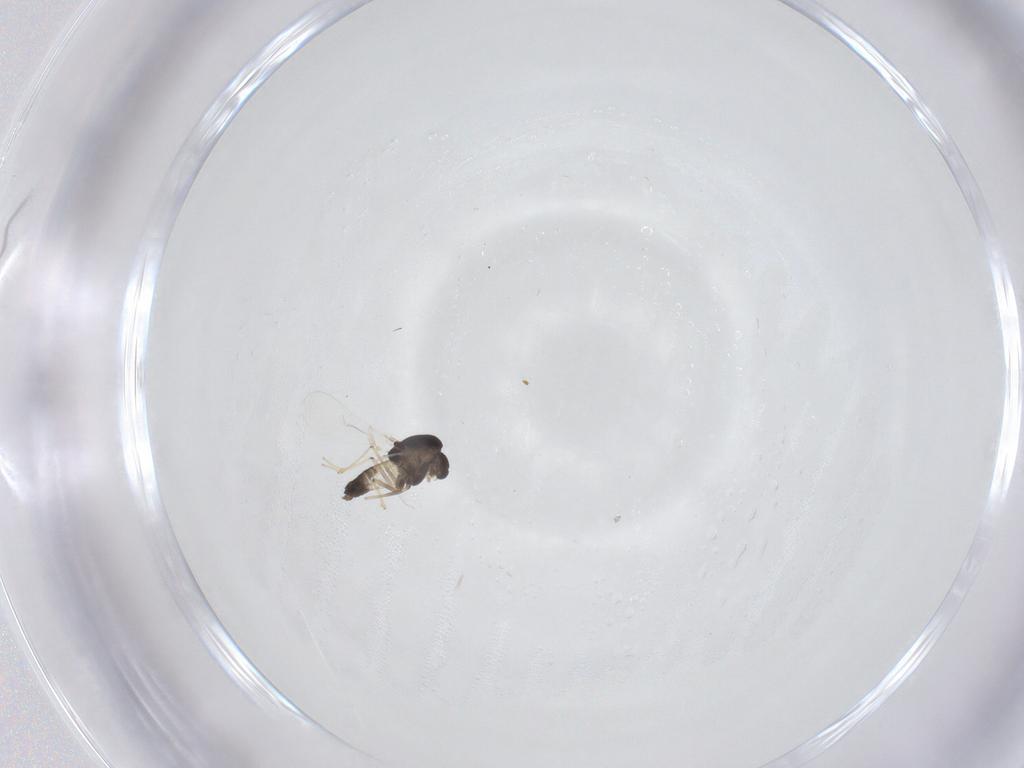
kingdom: Animalia
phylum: Arthropoda
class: Insecta
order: Diptera
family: Chironomidae
